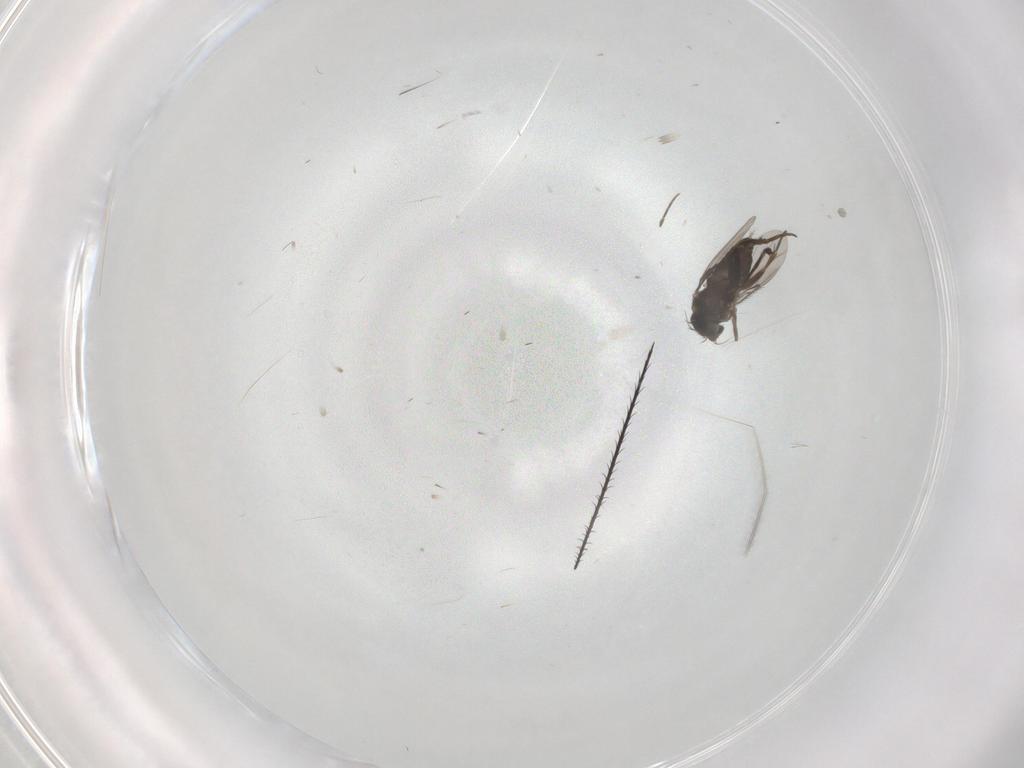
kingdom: Animalia
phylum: Arthropoda
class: Insecta
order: Diptera
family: Phoridae
